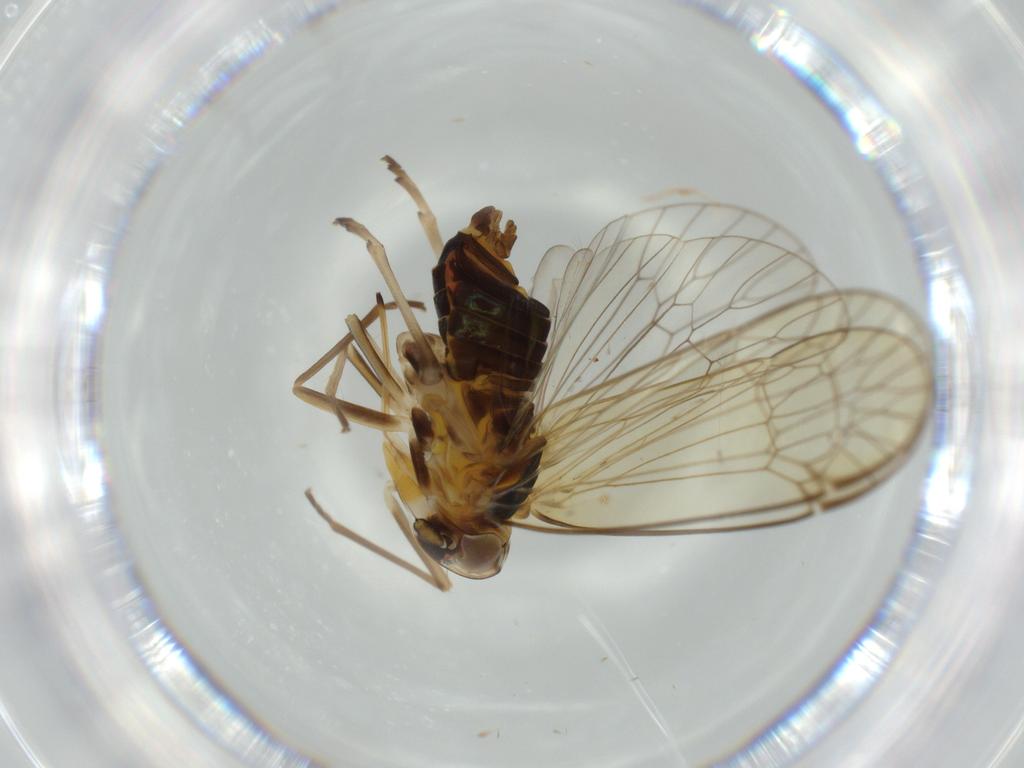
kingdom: Animalia
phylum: Arthropoda
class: Insecta
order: Hemiptera
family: Kinnaridae
